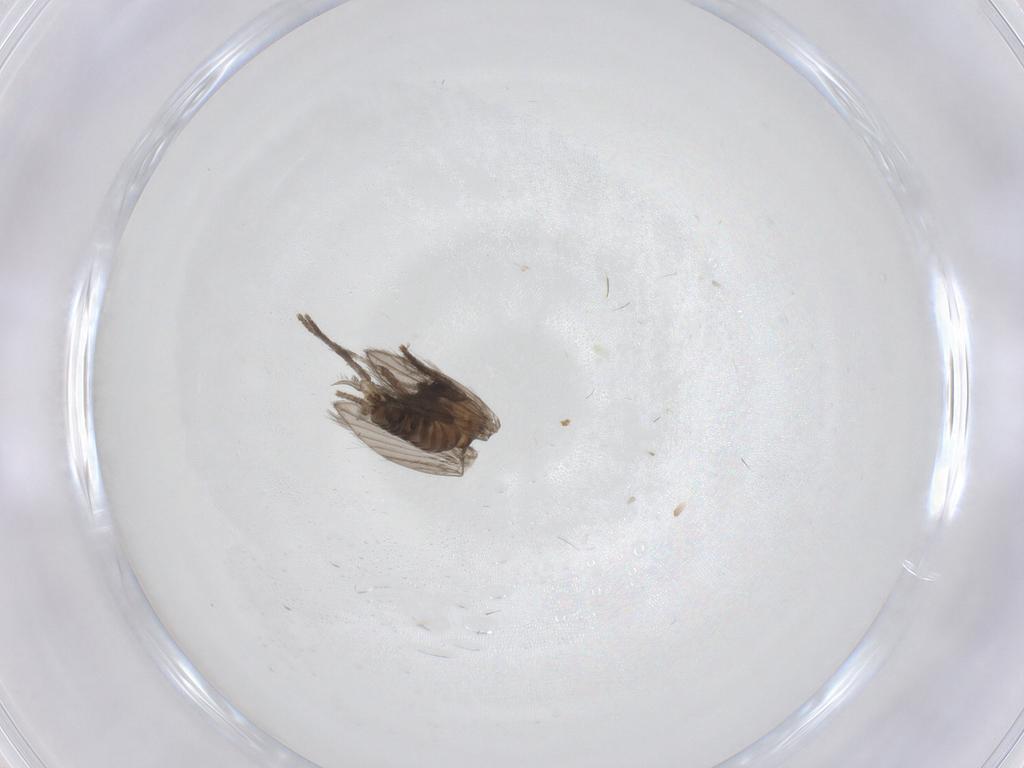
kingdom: Animalia
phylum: Arthropoda
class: Insecta
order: Diptera
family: Psychodidae
